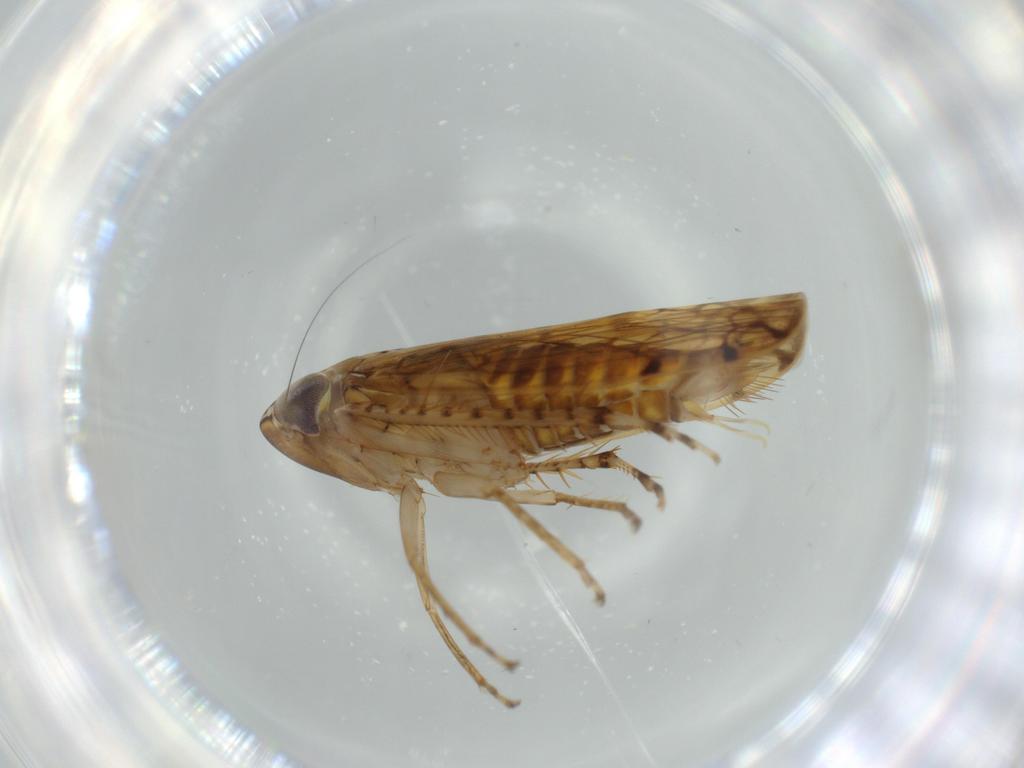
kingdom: Animalia
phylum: Arthropoda
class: Insecta
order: Hemiptera
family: Cicadellidae
